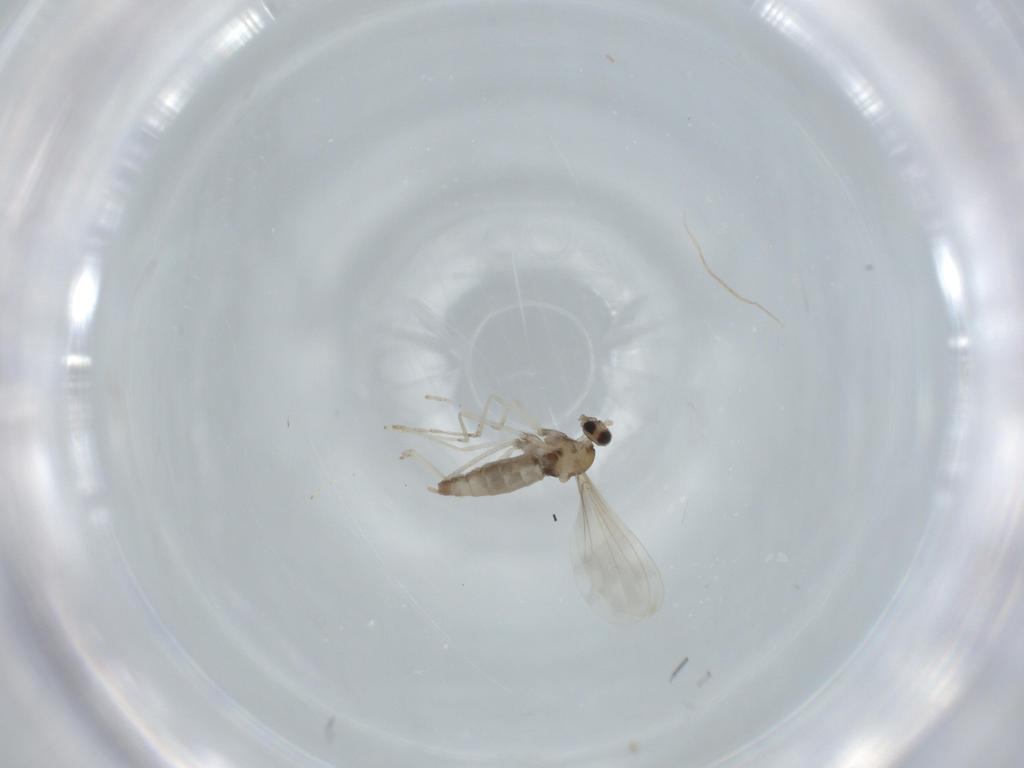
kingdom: Animalia
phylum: Arthropoda
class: Insecta
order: Diptera
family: Cecidomyiidae
